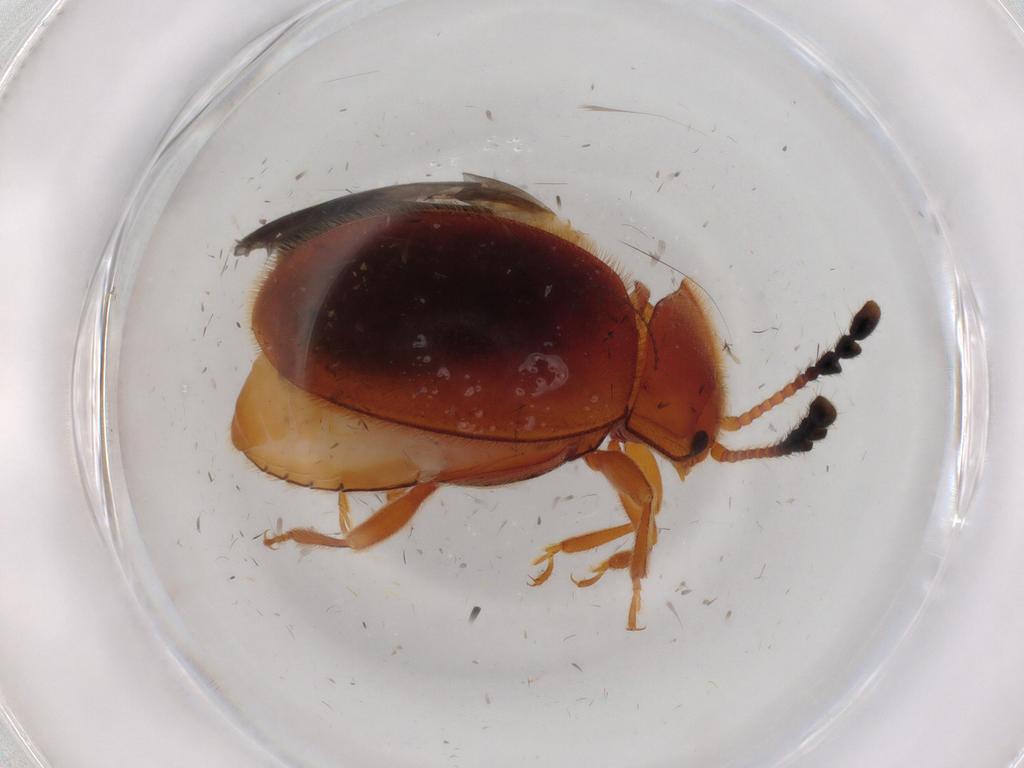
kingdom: Animalia
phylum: Arthropoda
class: Insecta
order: Coleoptera
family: Endomychidae
